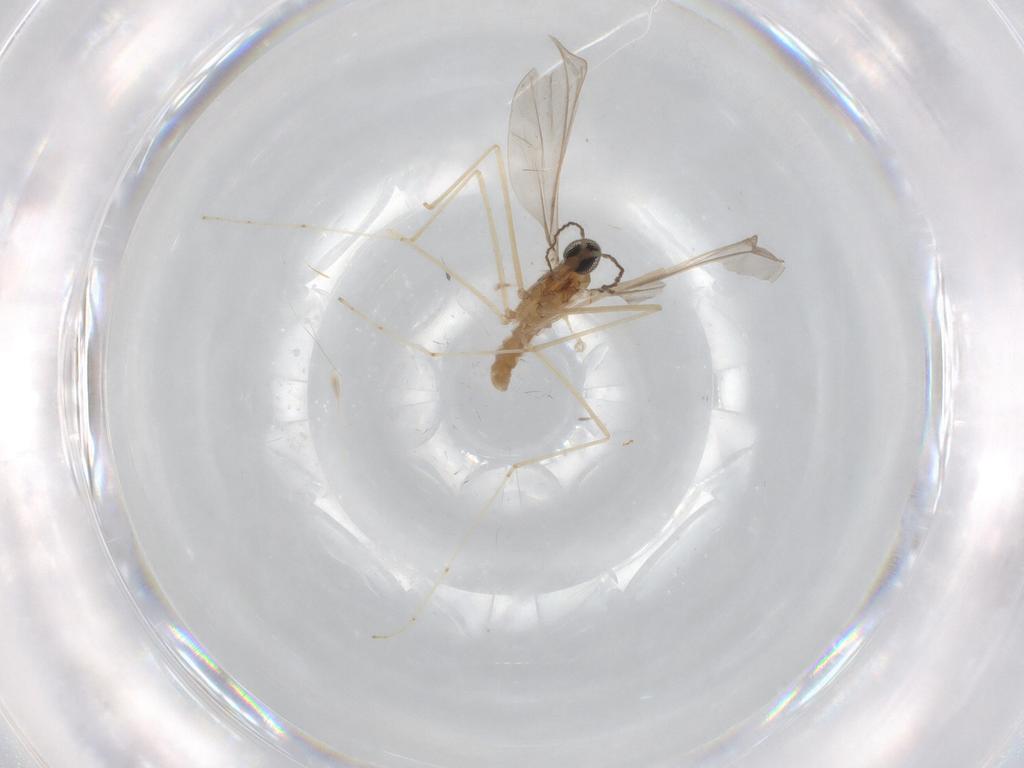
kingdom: Animalia
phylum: Arthropoda
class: Insecta
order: Diptera
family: Cecidomyiidae
